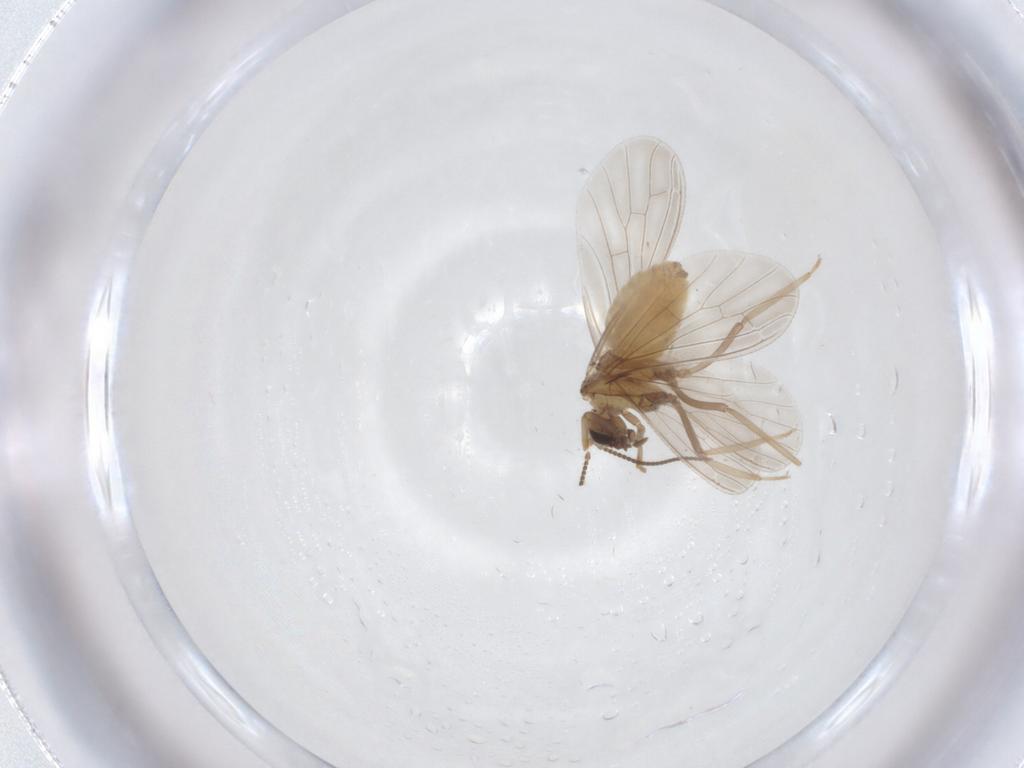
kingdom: Animalia
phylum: Arthropoda
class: Insecta
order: Neuroptera
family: Coniopterygidae
